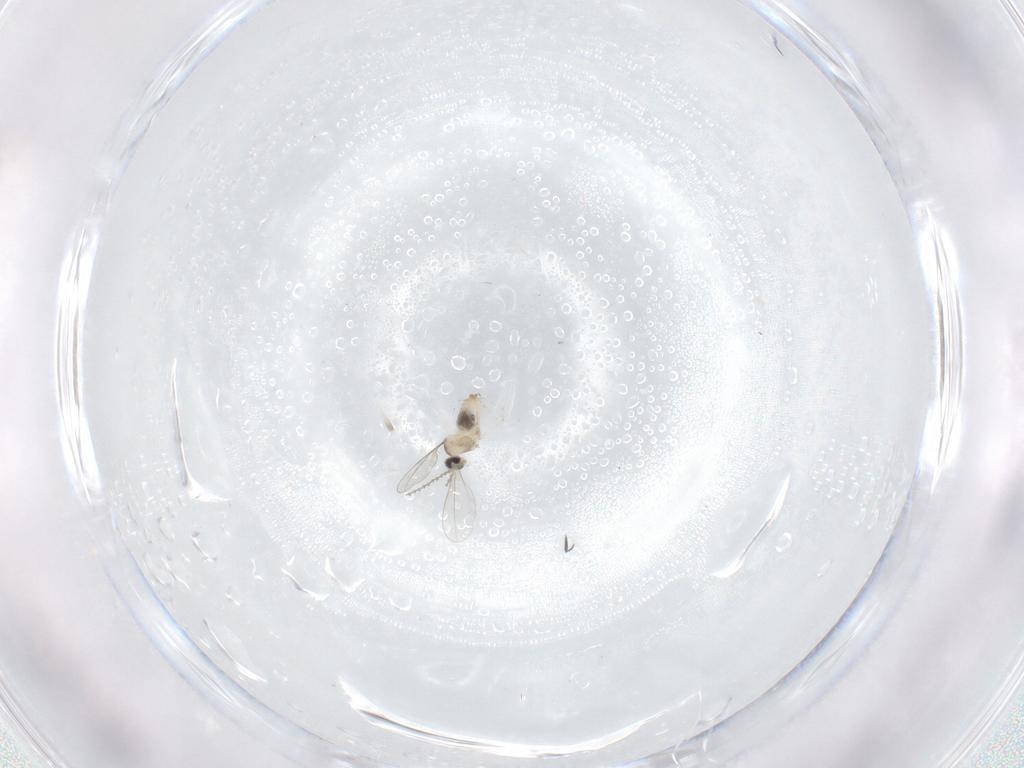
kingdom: Animalia
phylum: Arthropoda
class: Insecta
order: Diptera
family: Cecidomyiidae
